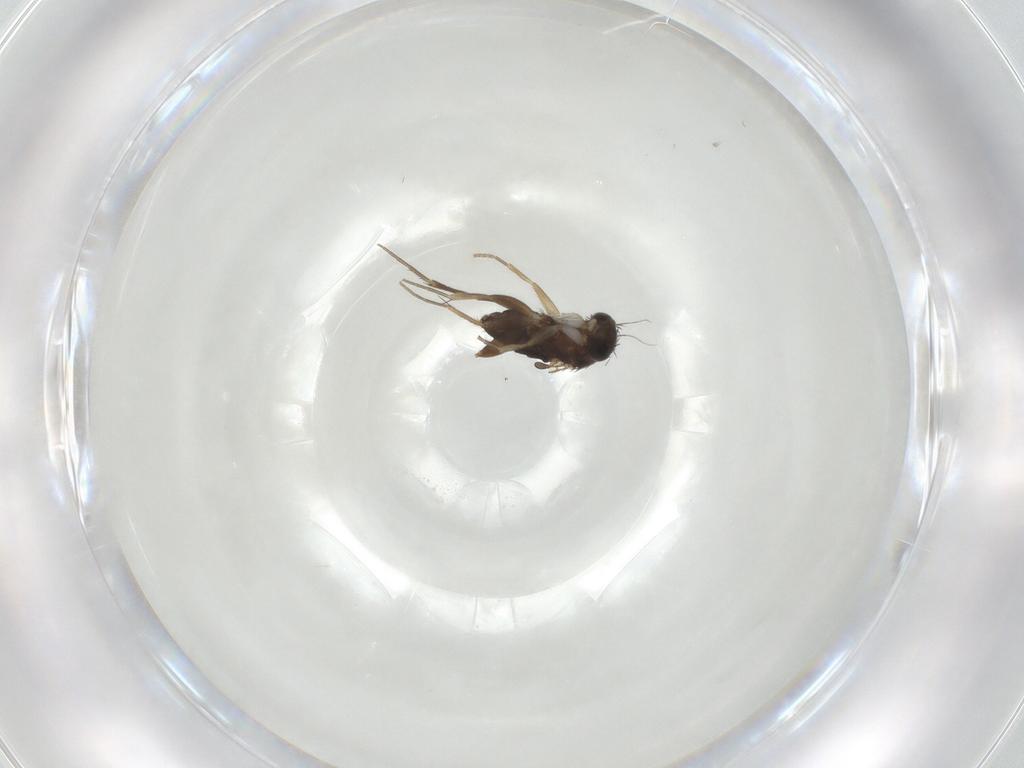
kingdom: Animalia
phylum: Arthropoda
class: Insecta
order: Diptera
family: Phoridae
